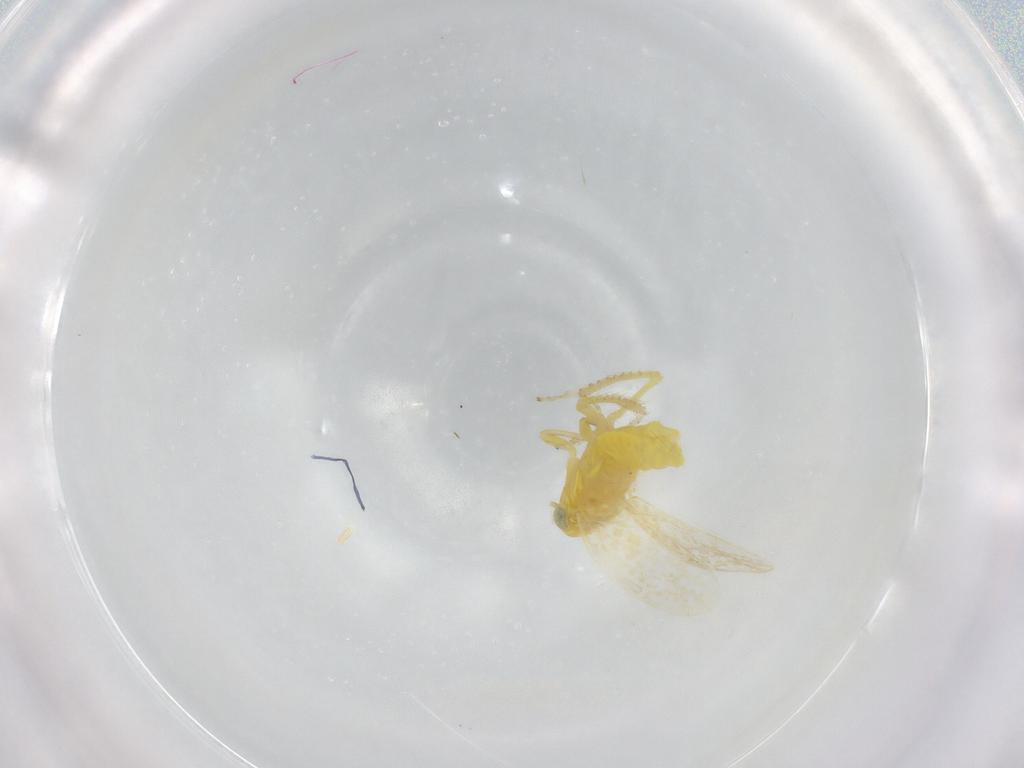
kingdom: Animalia
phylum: Arthropoda
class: Insecta
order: Hemiptera
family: Cicadellidae
